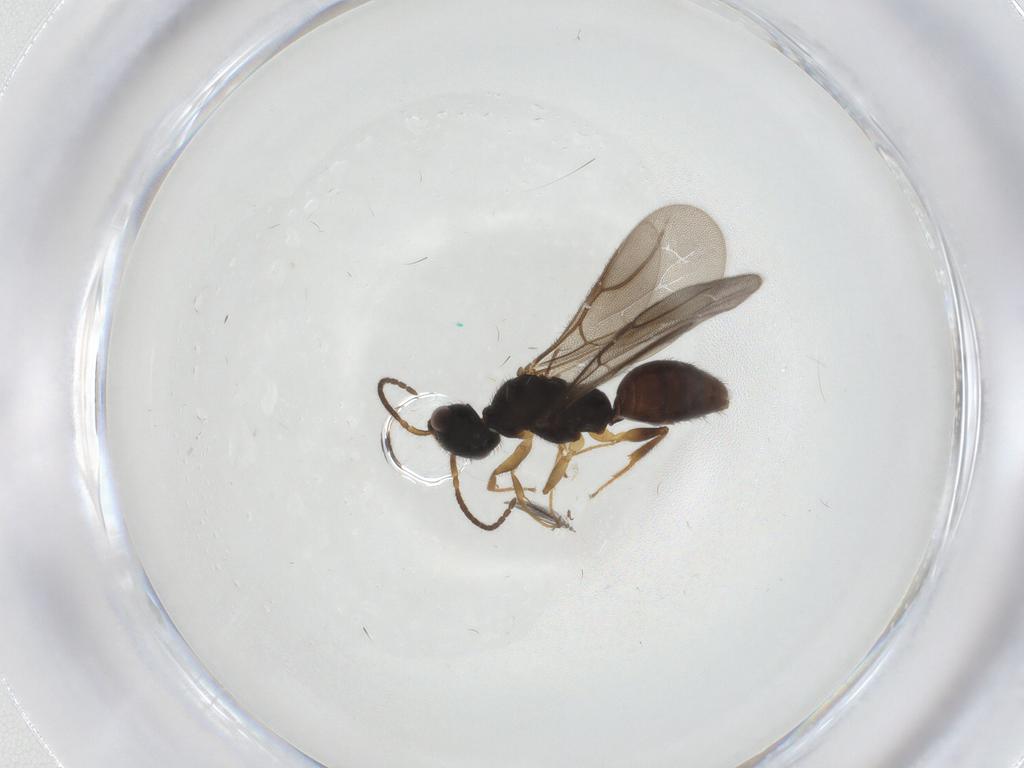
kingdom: Animalia
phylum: Arthropoda
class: Insecta
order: Hymenoptera
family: Bethylidae
